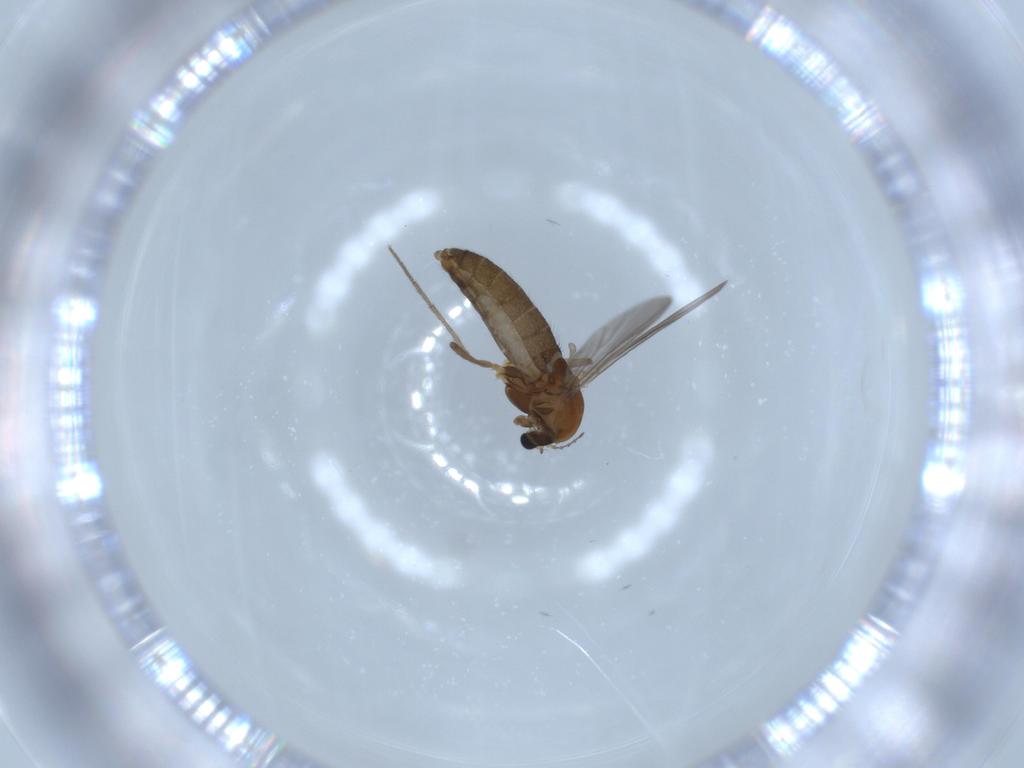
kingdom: Animalia
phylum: Arthropoda
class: Insecta
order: Diptera
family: Chironomidae
